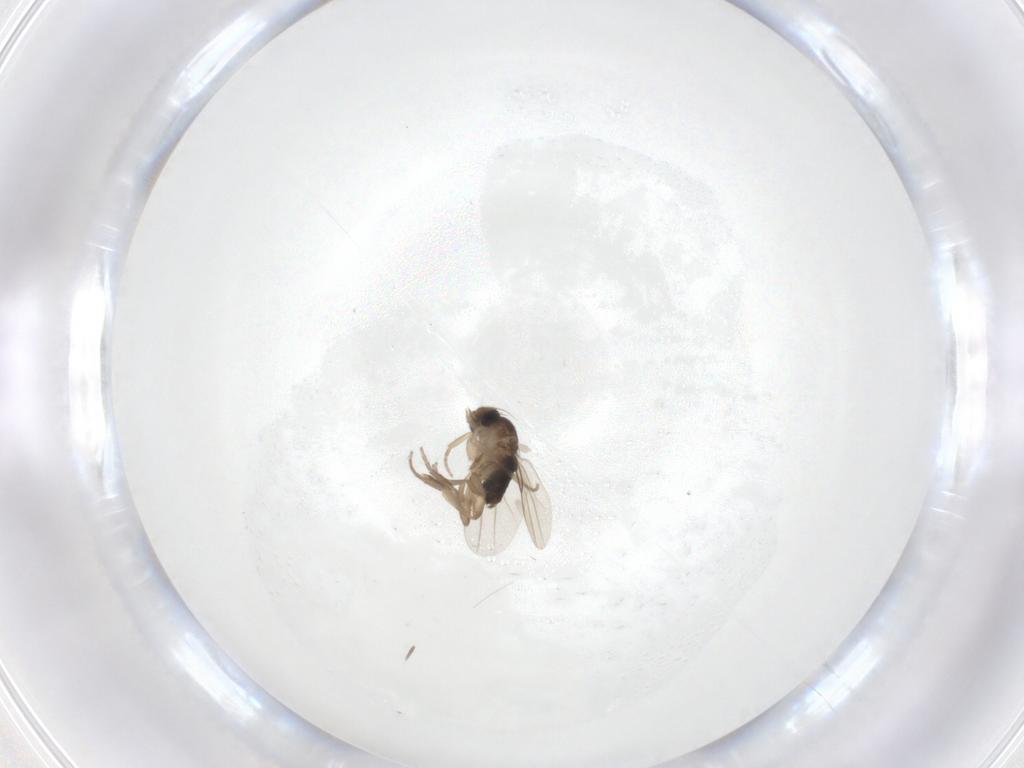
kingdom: Animalia
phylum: Arthropoda
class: Insecta
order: Diptera
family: Clusiidae
